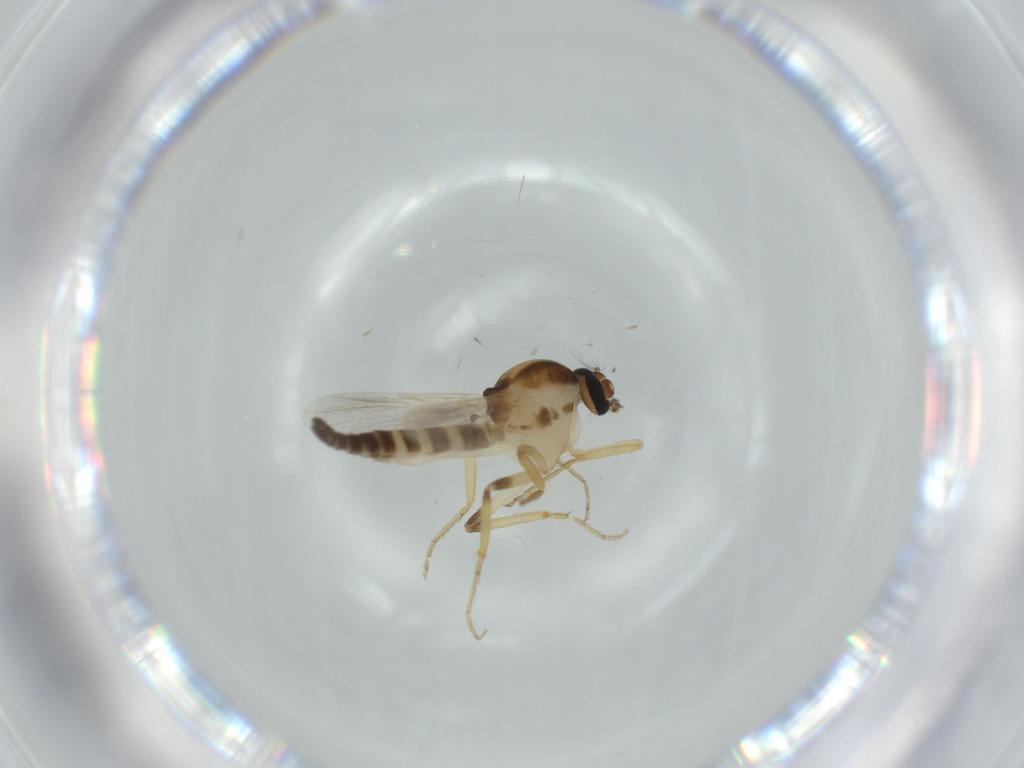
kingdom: Animalia
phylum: Arthropoda
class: Insecta
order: Diptera
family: Ceratopogonidae
